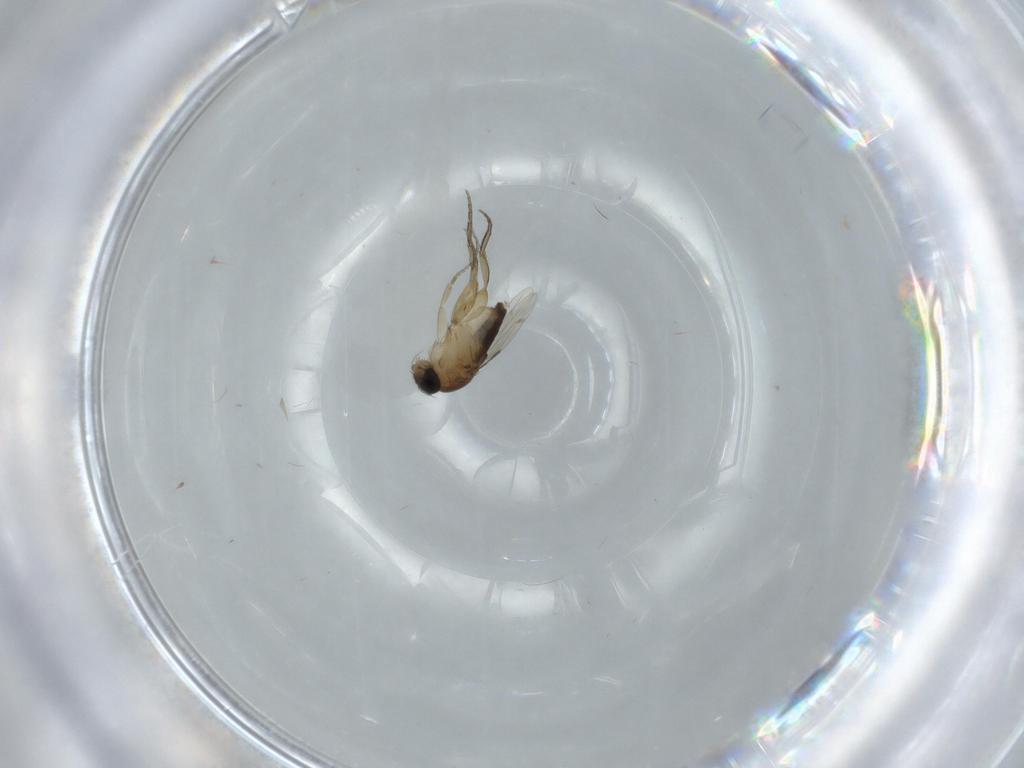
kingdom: Animalia
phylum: Arthropoda
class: Insecta
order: Diptera
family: Phoridae
